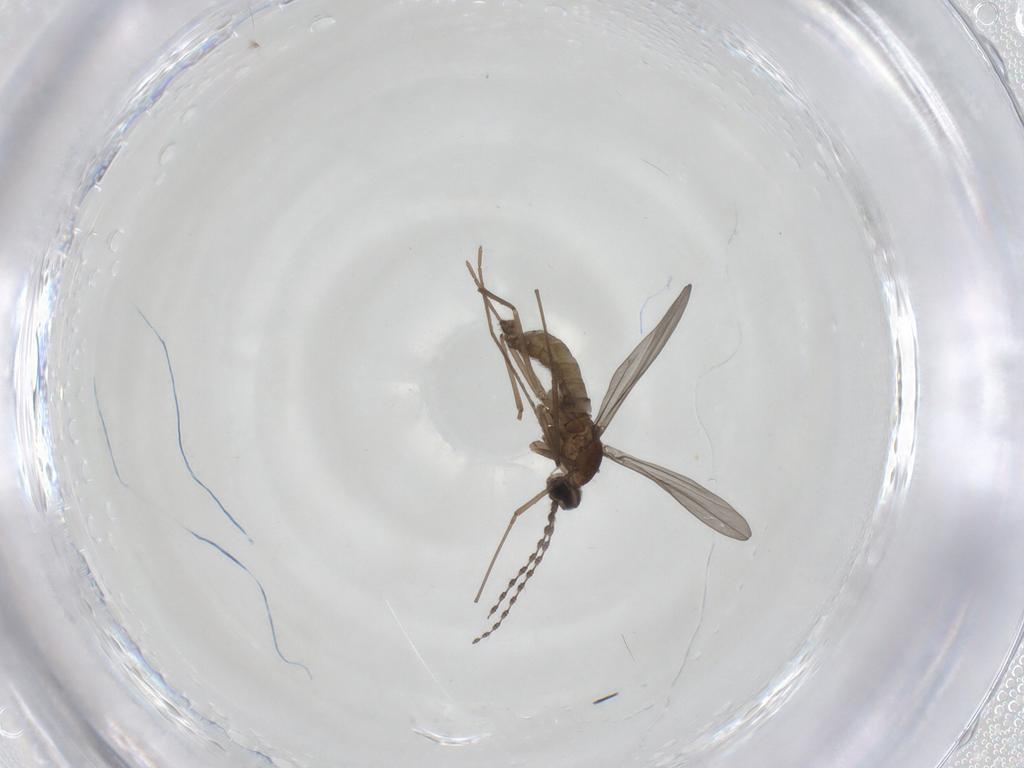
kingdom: Animalia
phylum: Arthropoda
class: Insecta
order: Diptera
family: Cecidomyiidae
